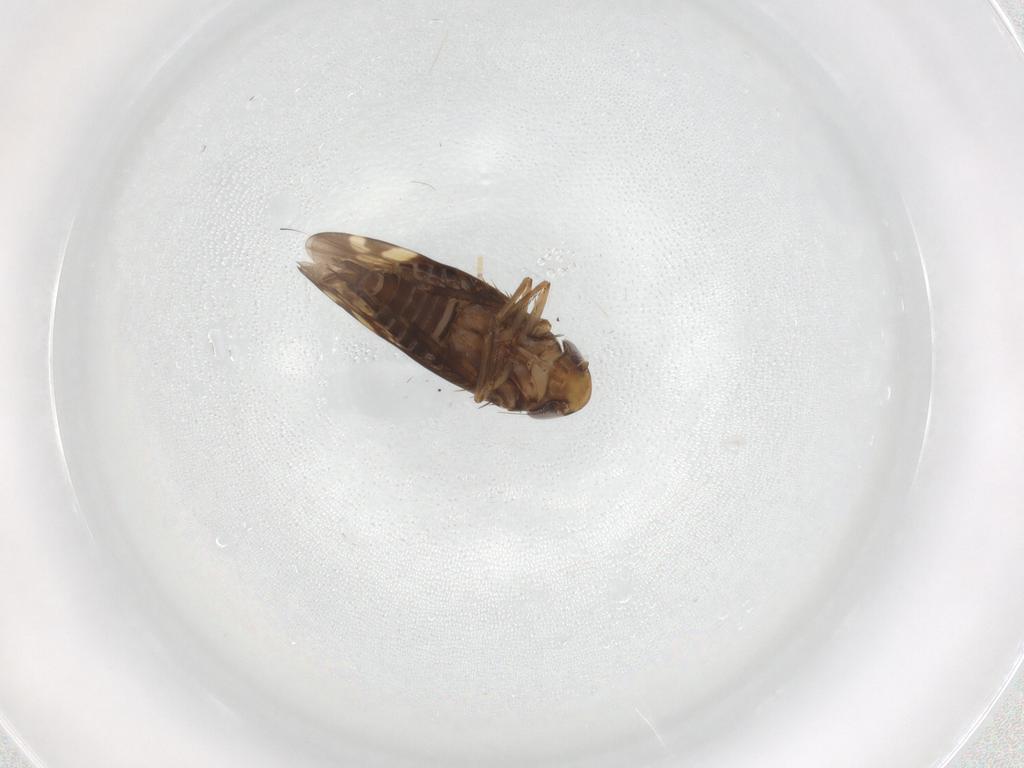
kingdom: Animalia
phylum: Arthropoda
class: Insecta
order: Hemiptera
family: Cicadellidae
